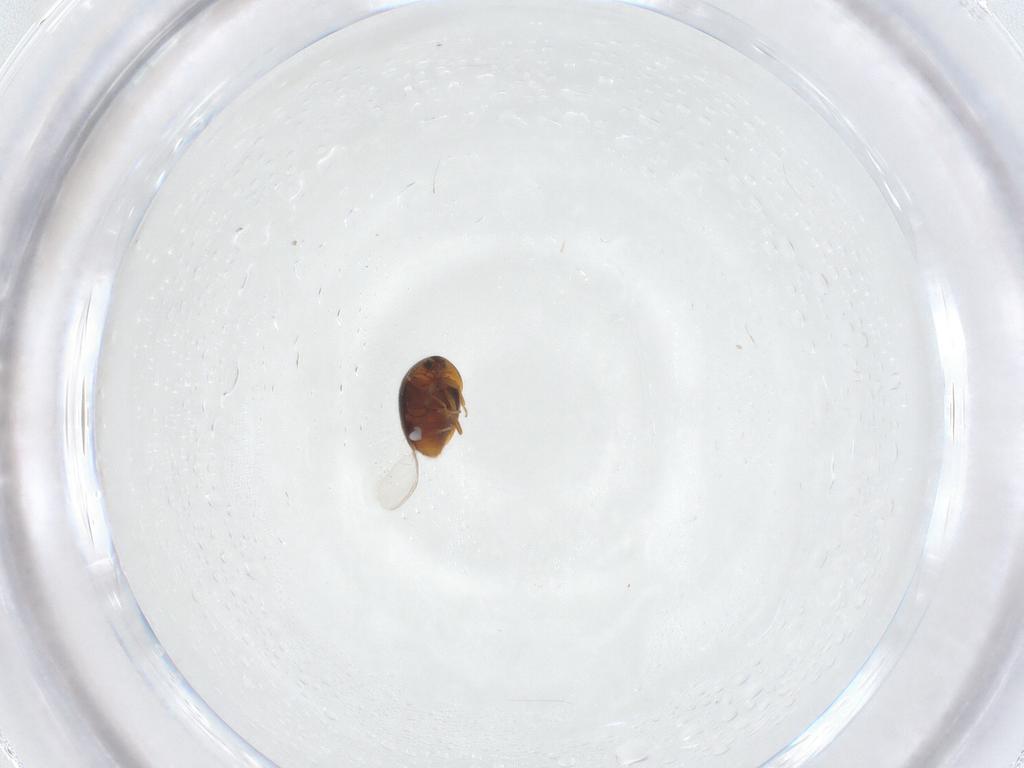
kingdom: Animalia
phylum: Arthropoda
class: Insecta
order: Coleoptera
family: Corylophidae
